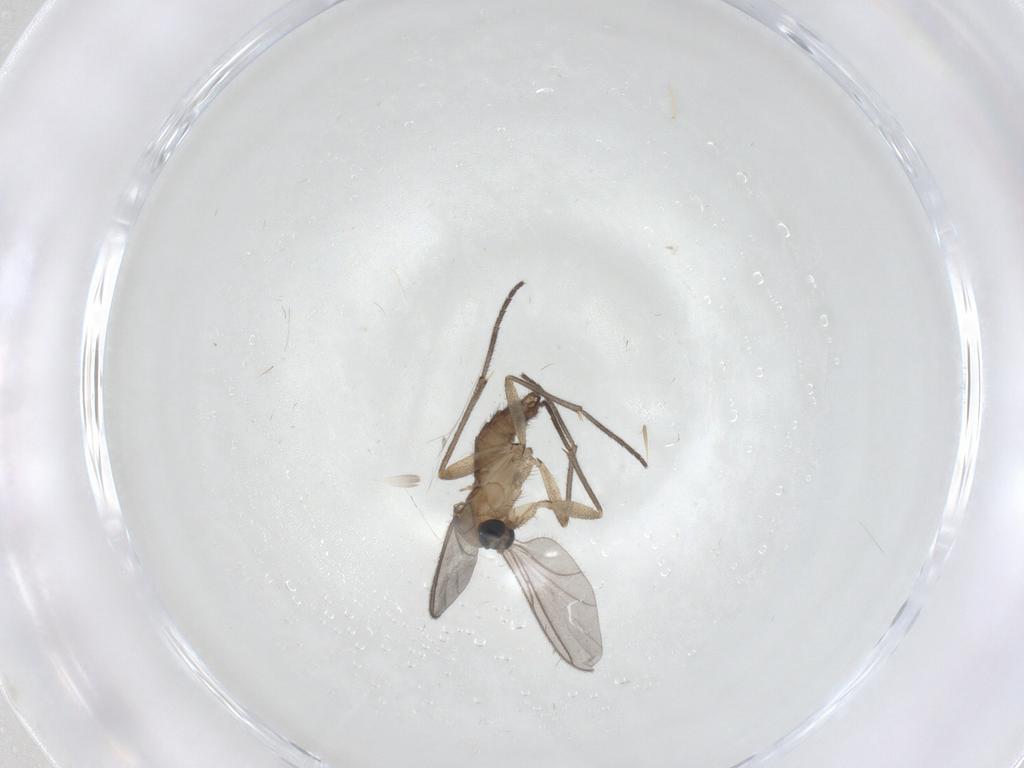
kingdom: Animalia
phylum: Arthropoda
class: Insecta
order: Diptera
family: Sciaridae
